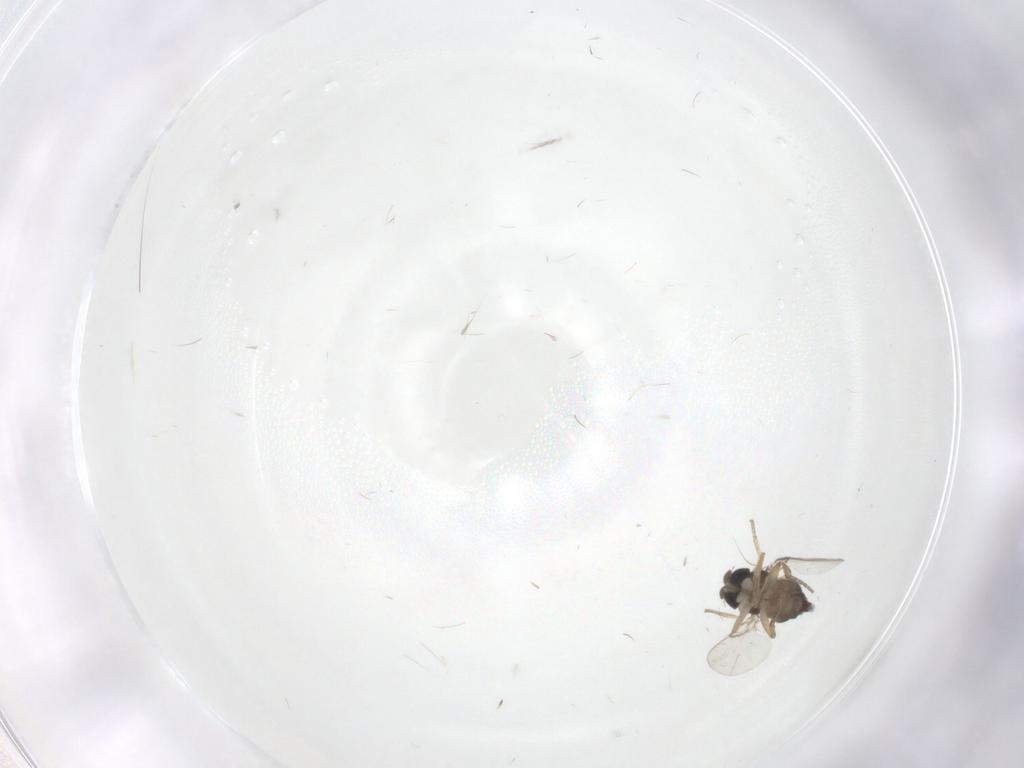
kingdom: Animalia
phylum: Arthropoda
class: Insecta
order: Diptera
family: Phoridae
